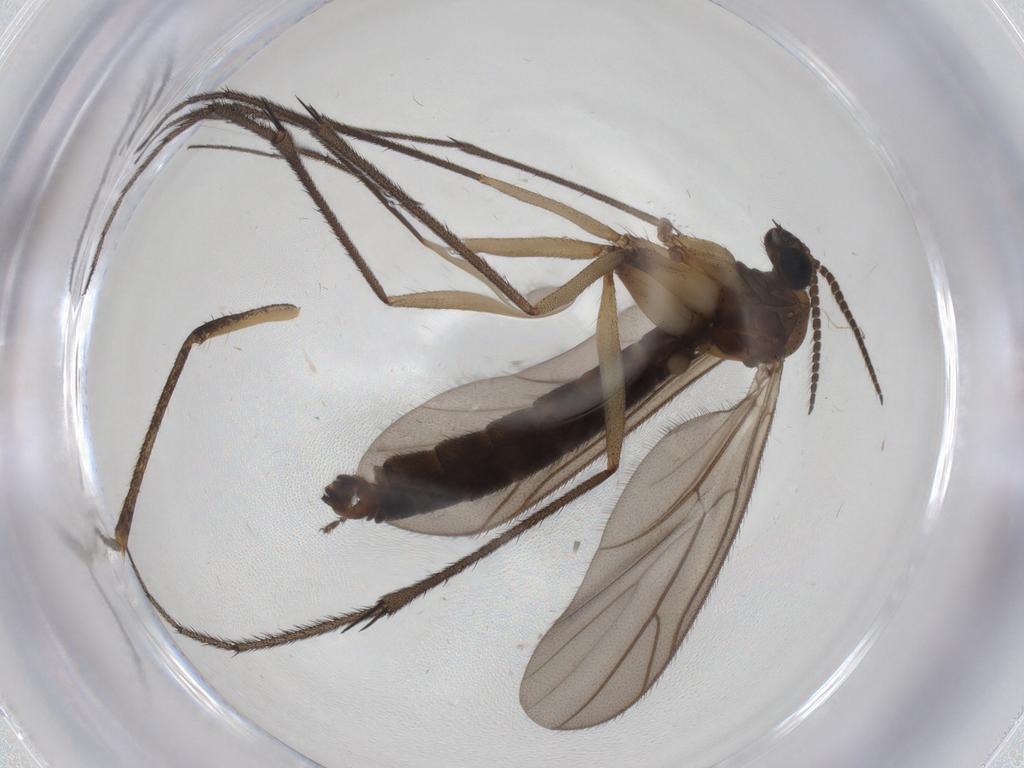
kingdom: Animalia
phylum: Arthropoda
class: Insecta
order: Diptera
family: Ditomyiidae
